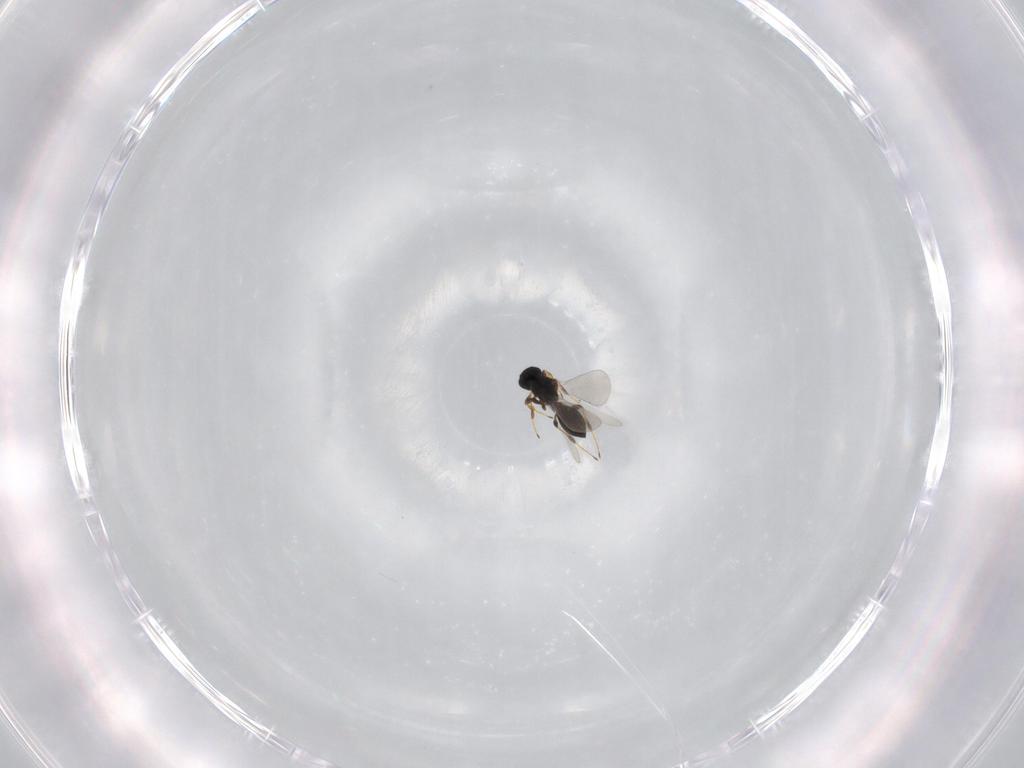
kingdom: Animalia
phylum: Arthropoda
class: Insecta
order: Hymenoptera
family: Platygastridae
